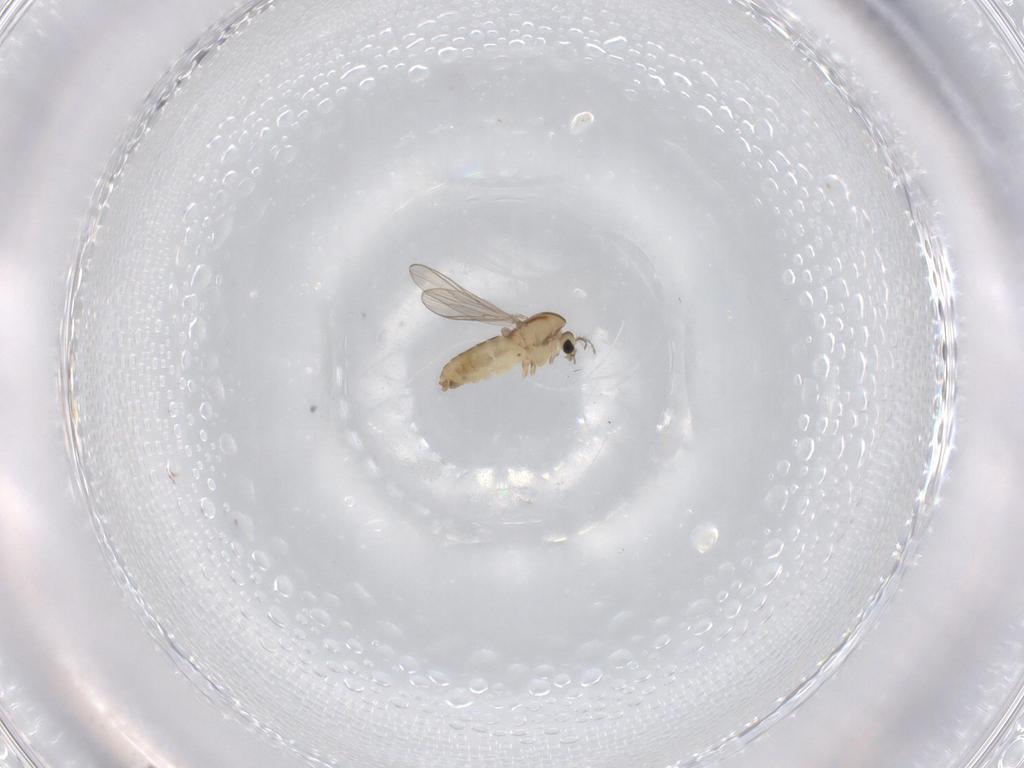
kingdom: Animalia
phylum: Arthropoda
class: Insecta
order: Diptera
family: Chironomidae
